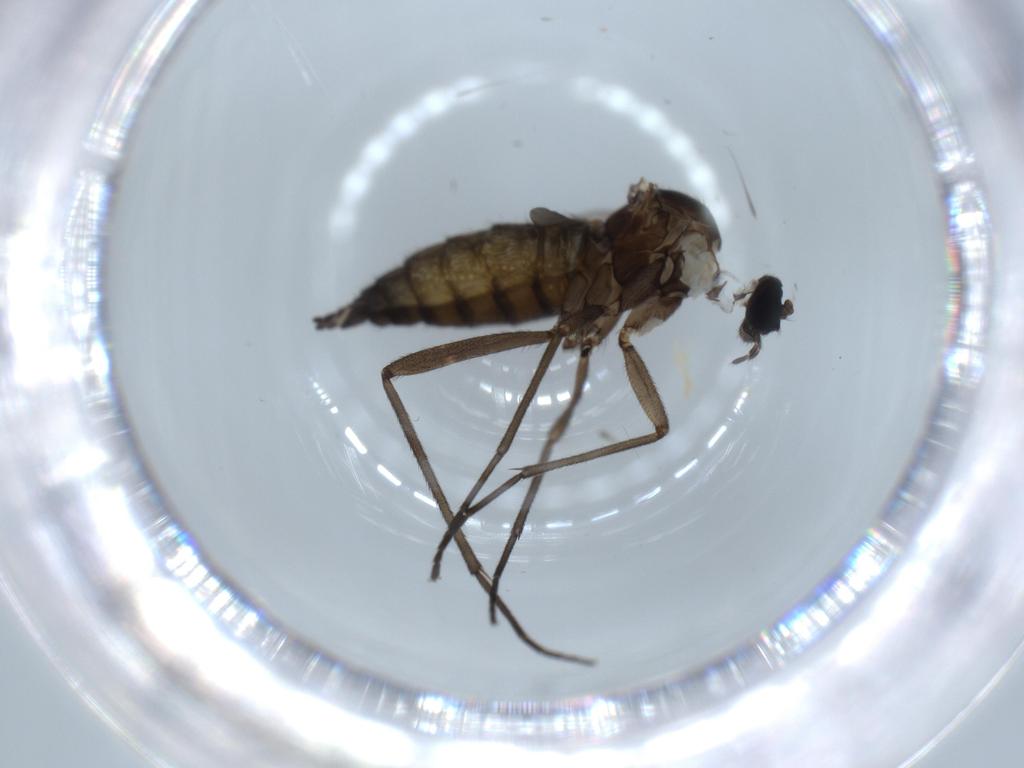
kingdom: Animalia
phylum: Arthropoda
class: Insecta
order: Diptera
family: Sciaridae
